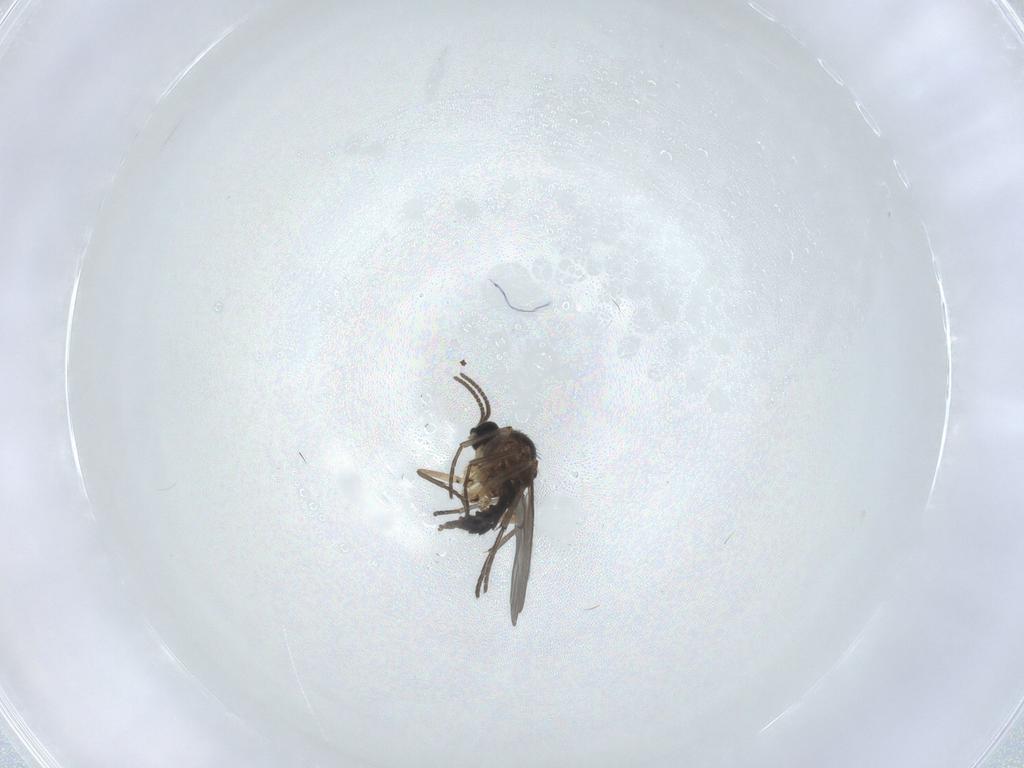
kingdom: Animalia
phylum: Arthropoda
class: Insecta
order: Diptera
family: Sciaridae
